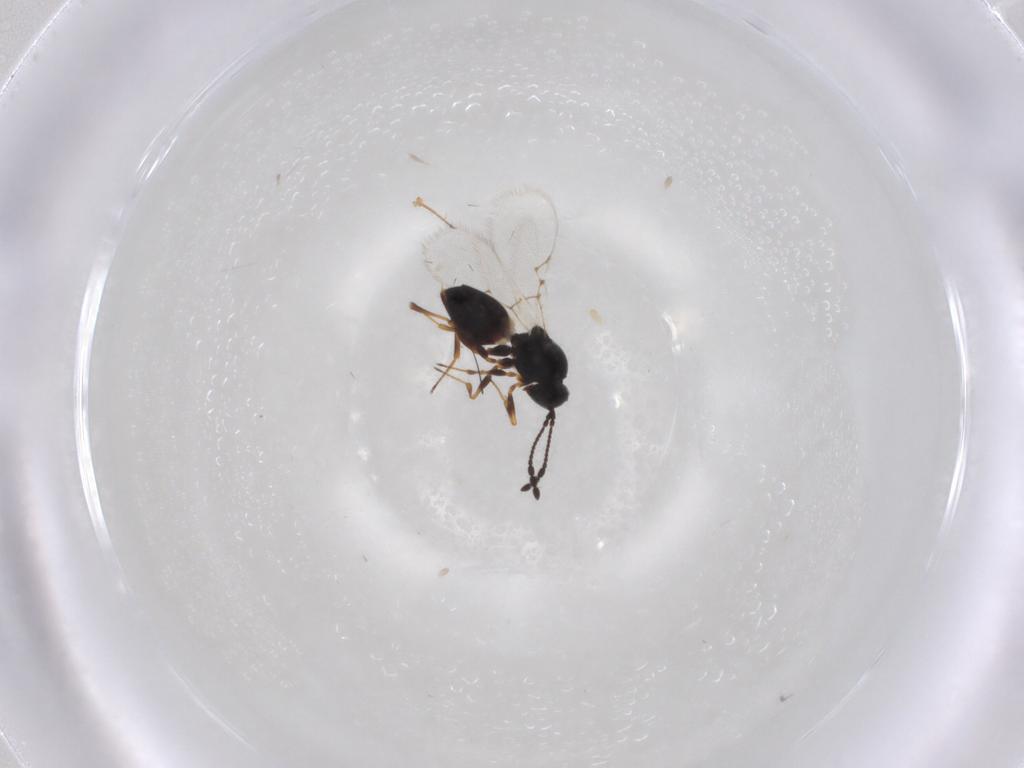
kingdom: Animalia
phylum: Arthropoda
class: Insecta
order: Hymenoptera
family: Figitidae
